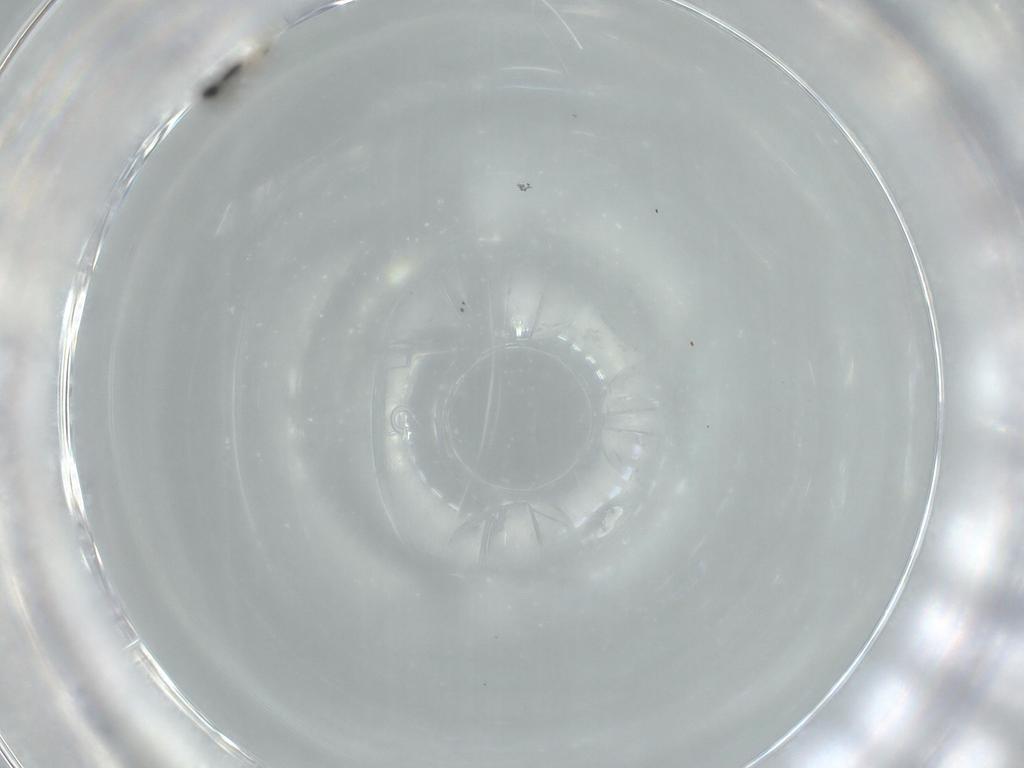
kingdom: Animalia
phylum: Arthropoda
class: Insecta
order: Hymenoptera
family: Platygastridae
